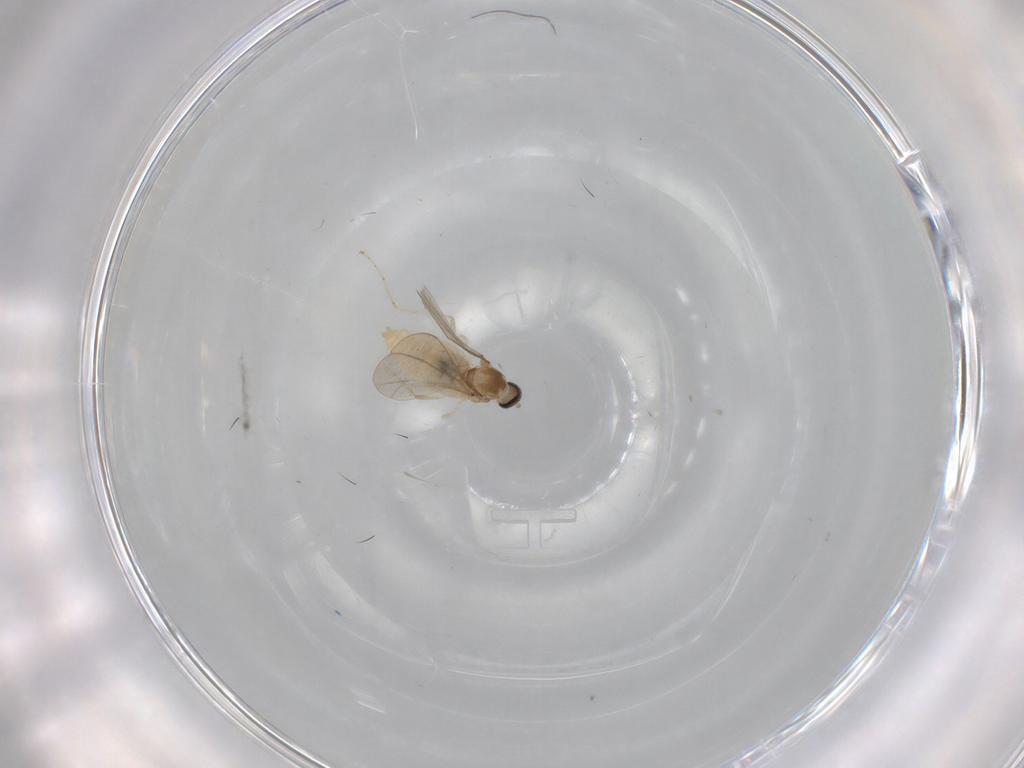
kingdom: Animalia
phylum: Arthropoda
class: Insecta
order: Diptera
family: Cecidomyiidae
